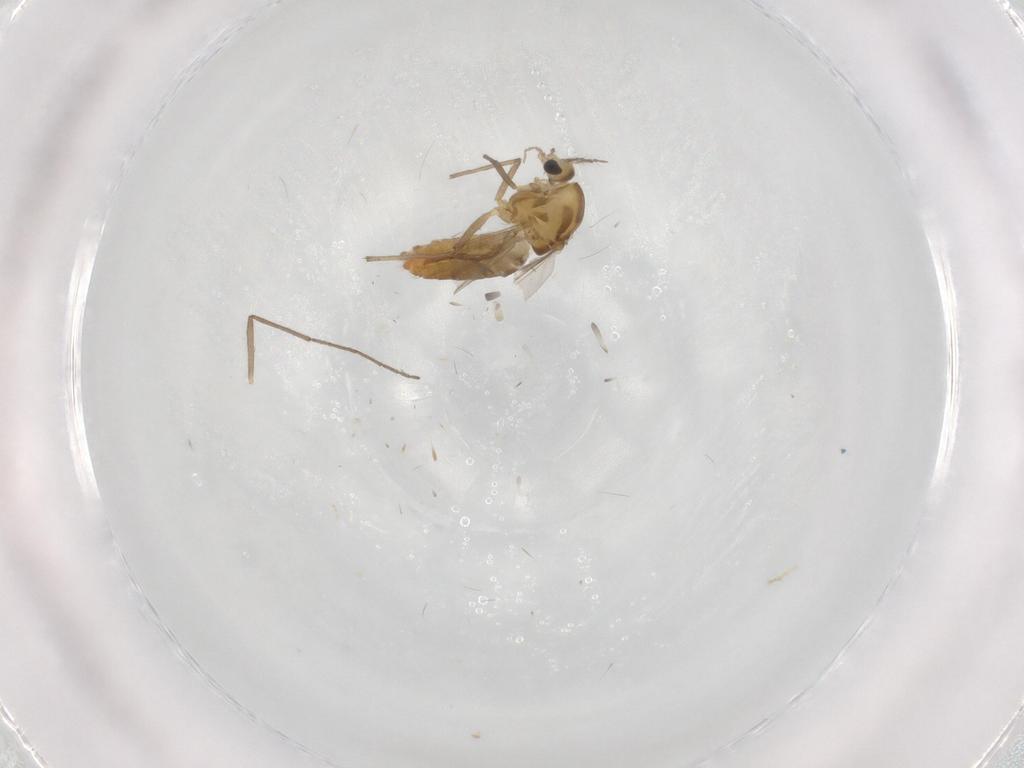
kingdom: Animalia
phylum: Arthropoda
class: Insecta
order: Diptera
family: Chironomidae
